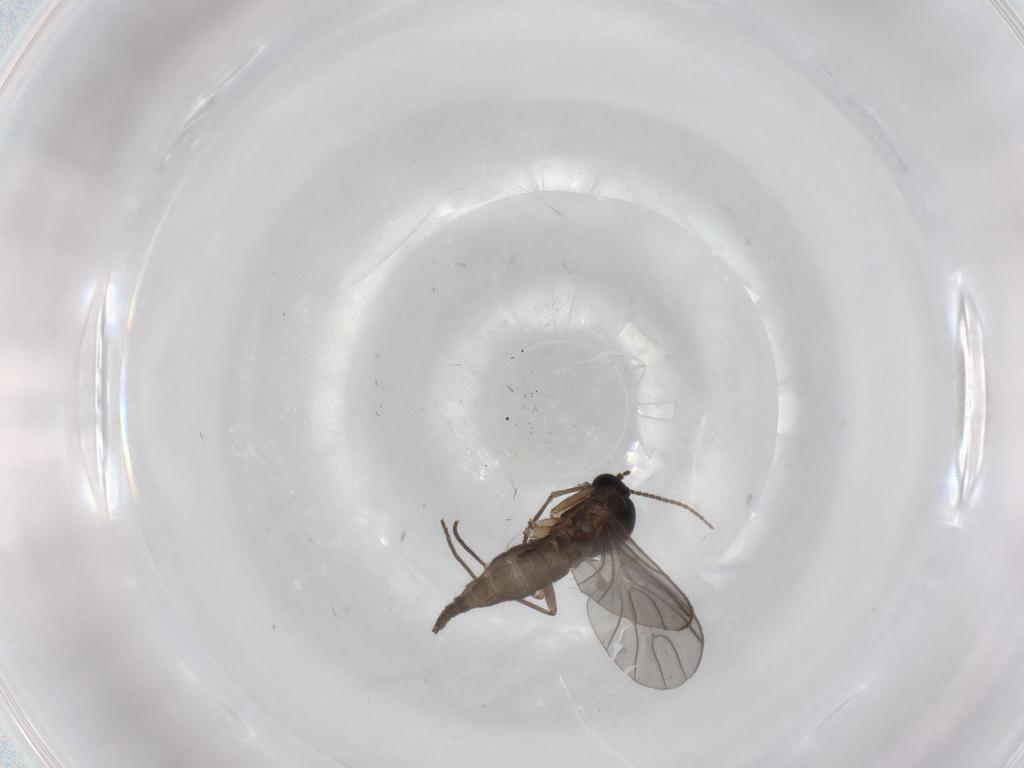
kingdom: Animalia
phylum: Arthropoda
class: Insecta
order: Diptera
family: Sciaridae
